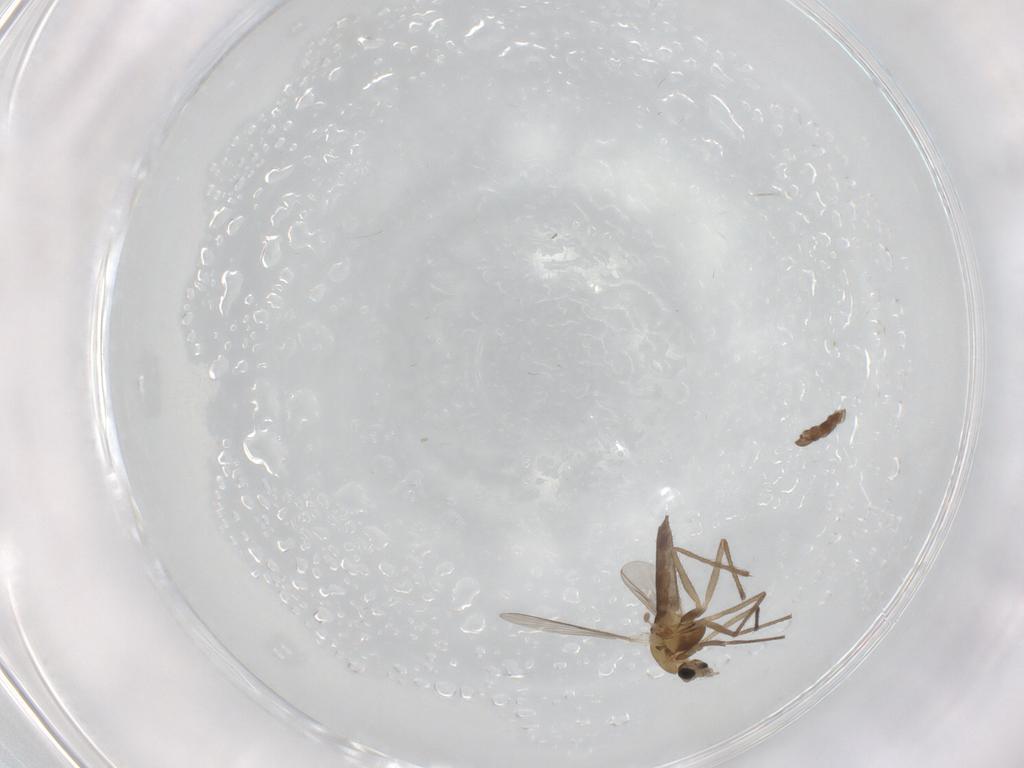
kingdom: Animalia
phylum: Arthropoda
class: Insecta
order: Diptera
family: Chironomidae
